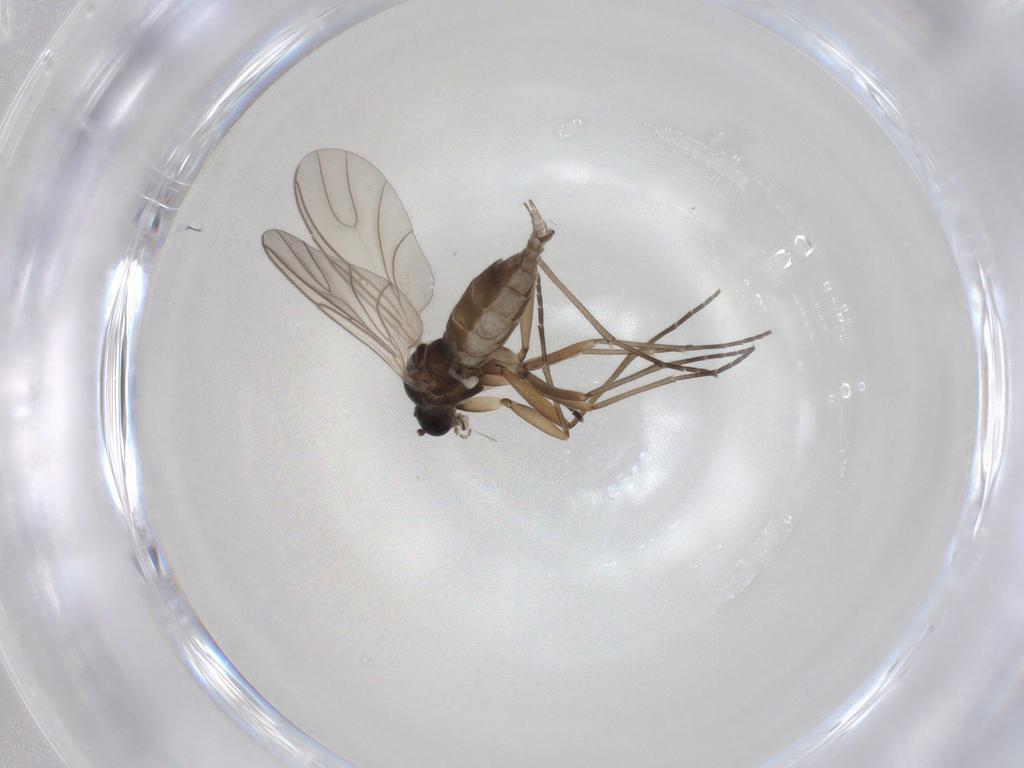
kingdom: Animalia
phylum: Arthropoda
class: Insecta
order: Diptera
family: Sciaridae
